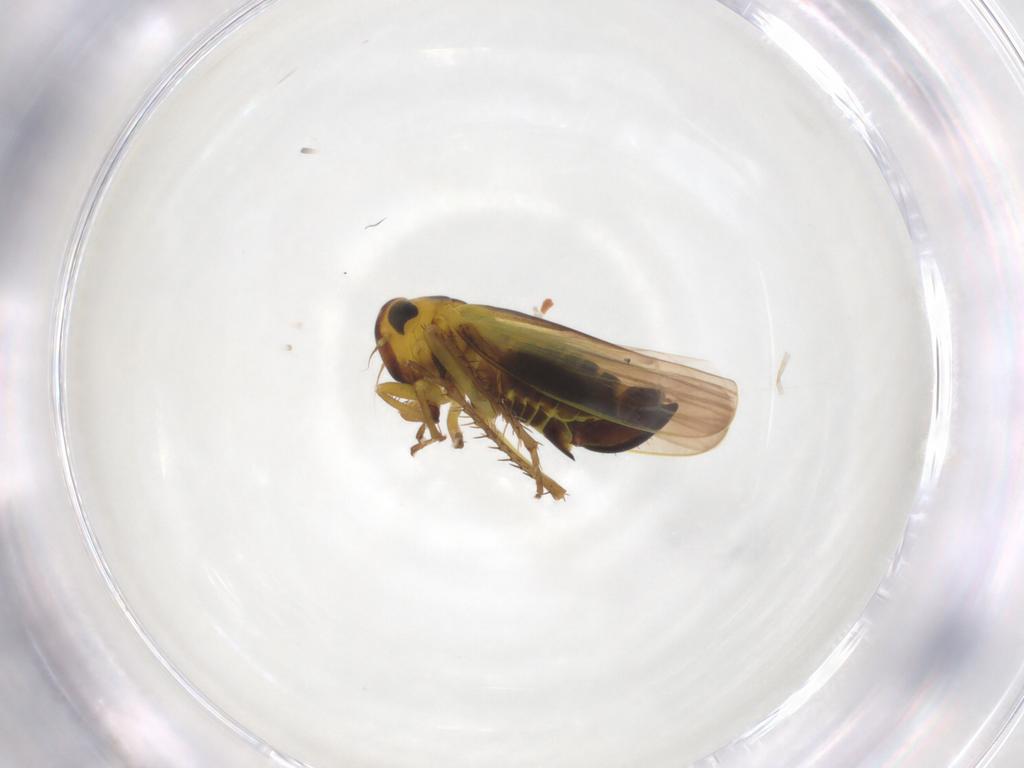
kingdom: Animalia
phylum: Arthropoda
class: Insecta
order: Hemiptera
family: Cicadellidae
